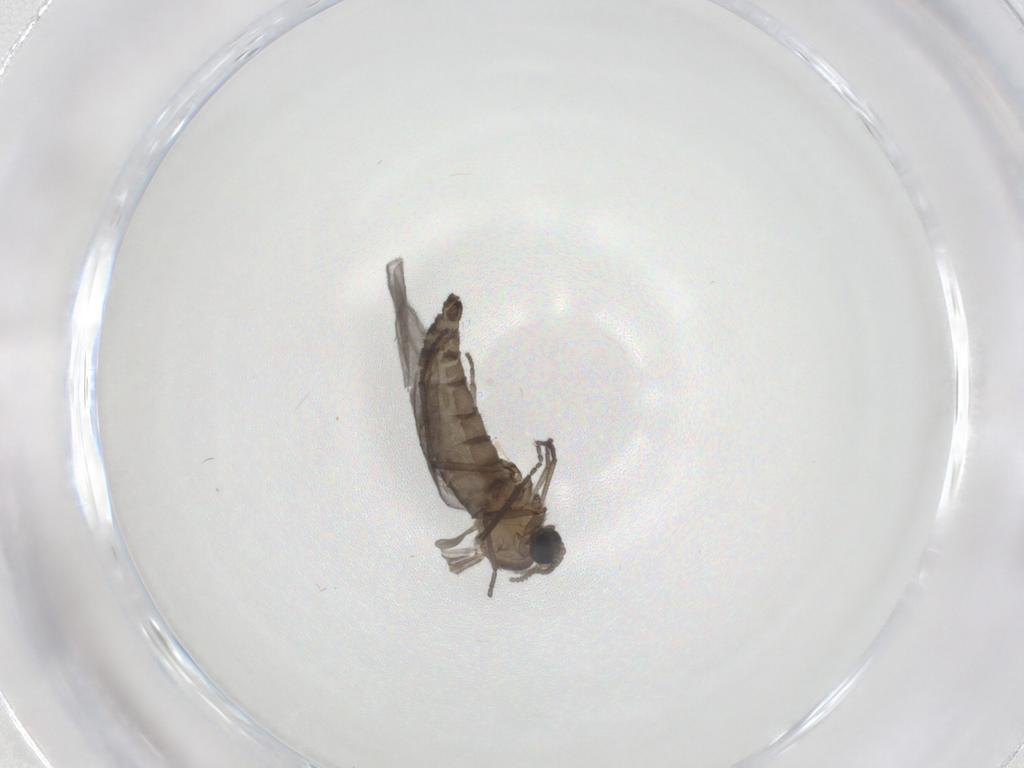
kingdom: Animalia
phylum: Arthropoda
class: Insecta
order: Diptera
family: Sciaridae
